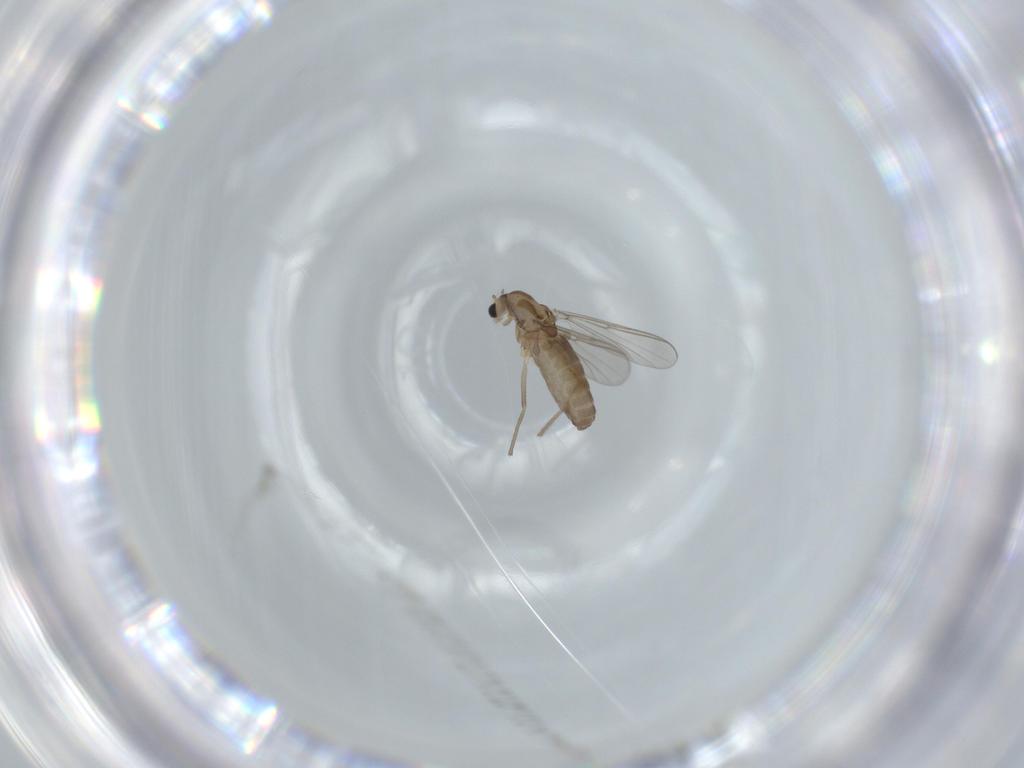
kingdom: Animalia
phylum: Arthropoda
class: Insecta
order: Diptera
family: Chironomidae
